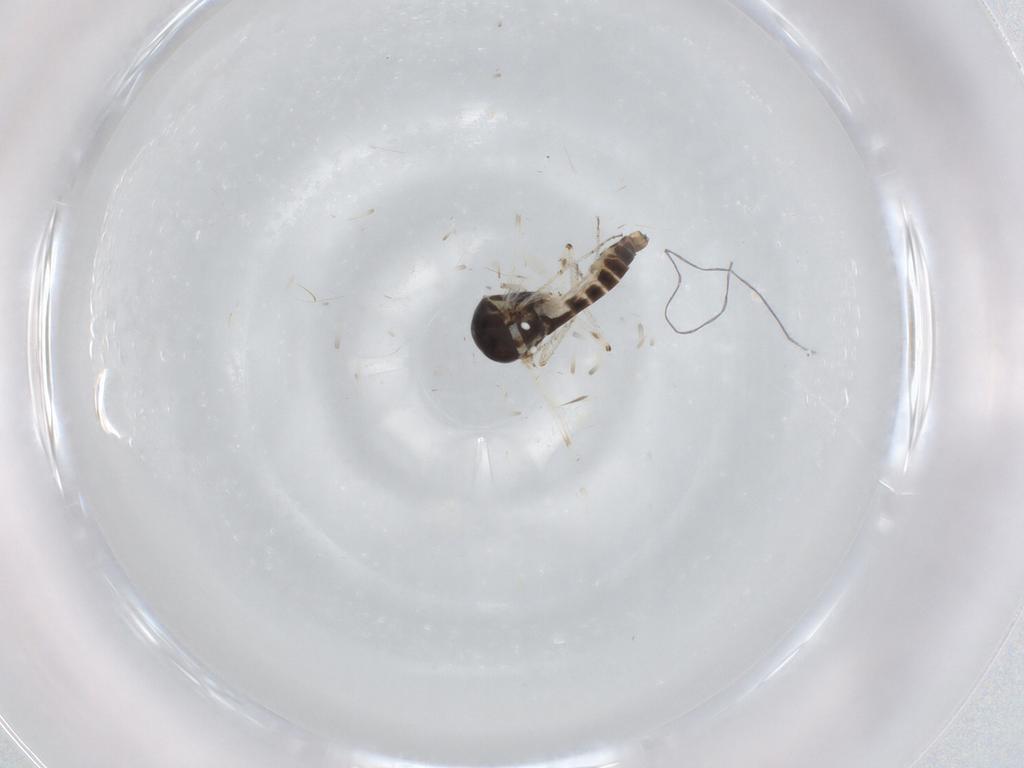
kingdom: Animalia
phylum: Arthropoda
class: Insecta
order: Diptera
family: Ceratopogonidae
